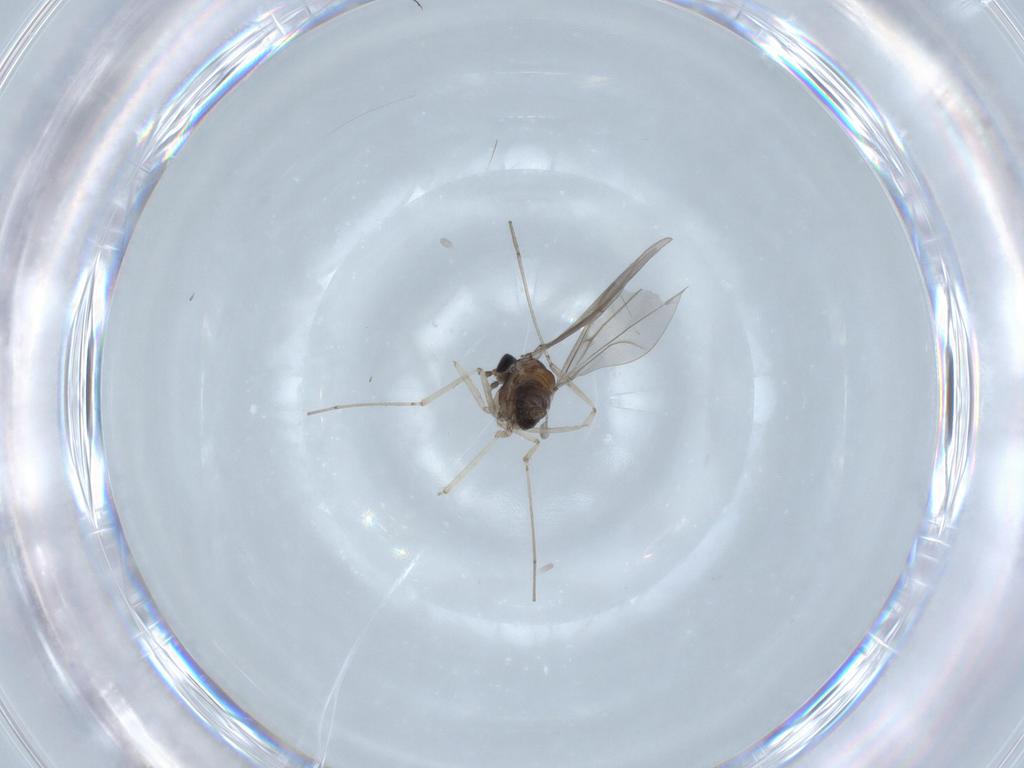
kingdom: Animalia
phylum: Arthropoda
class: Insecta
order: Diptera
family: Cecidomyiidae
